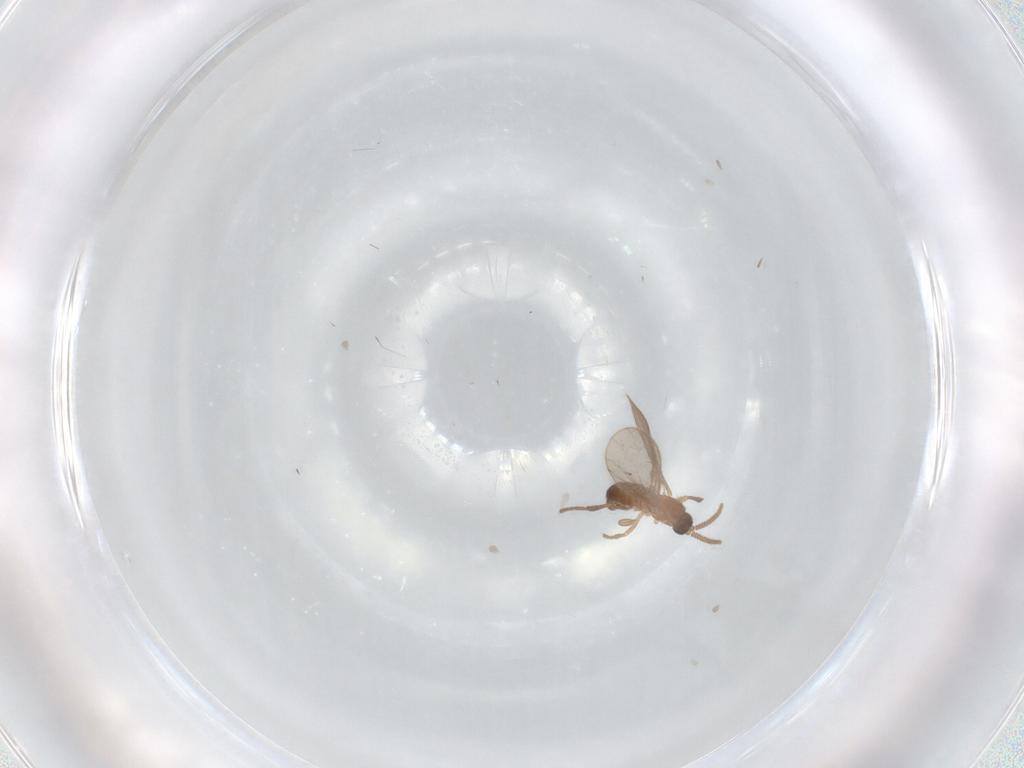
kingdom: Animalia
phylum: Arthropoda
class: Insecta
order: Diptera
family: Sciaridae
